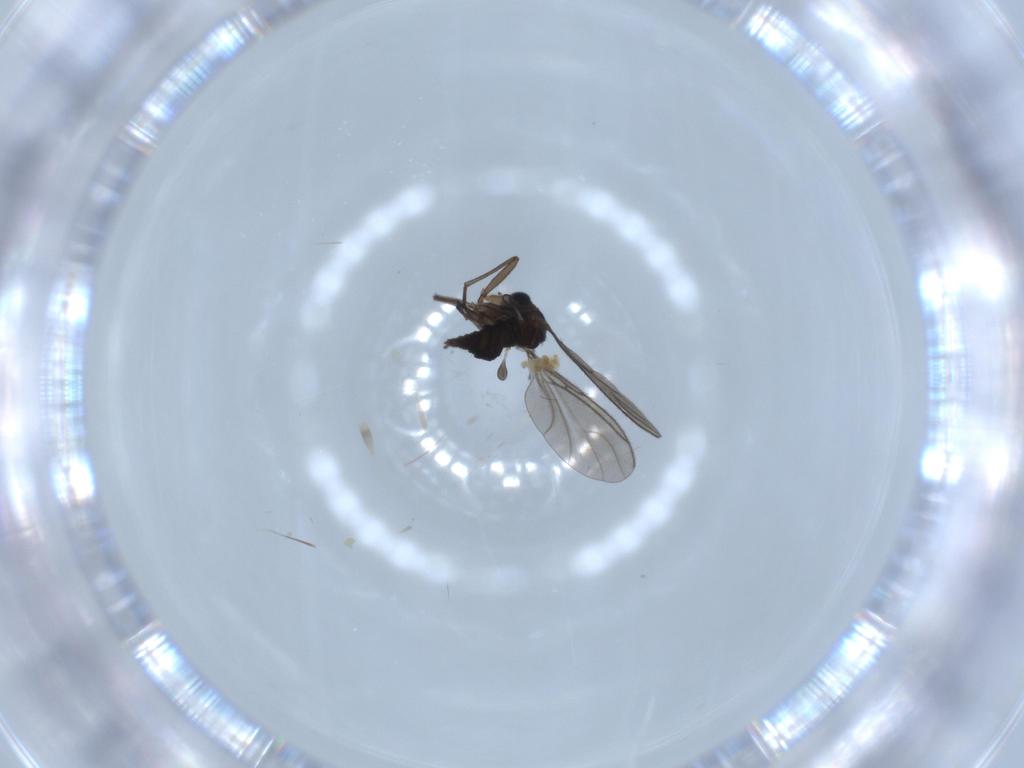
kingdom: Animalia
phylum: Arthropoda
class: Insecta
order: Diptera
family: Sciaridae
